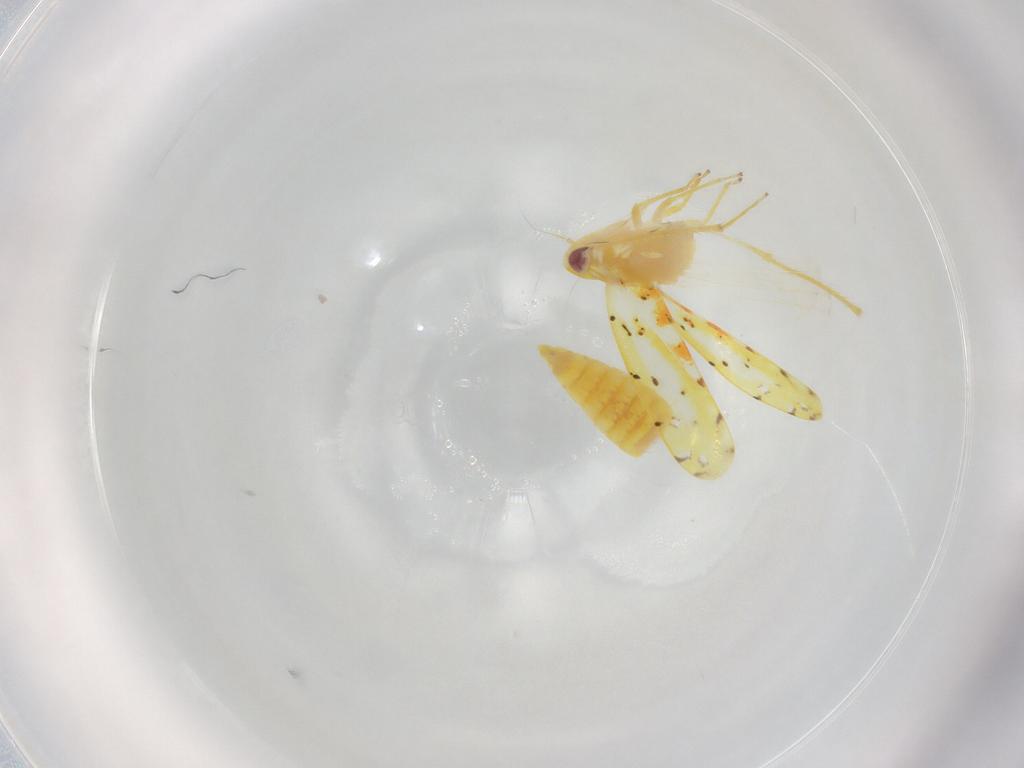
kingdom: Animalia
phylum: Arthropoda
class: Insecta
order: Hemiptera
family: Cicadellidae
